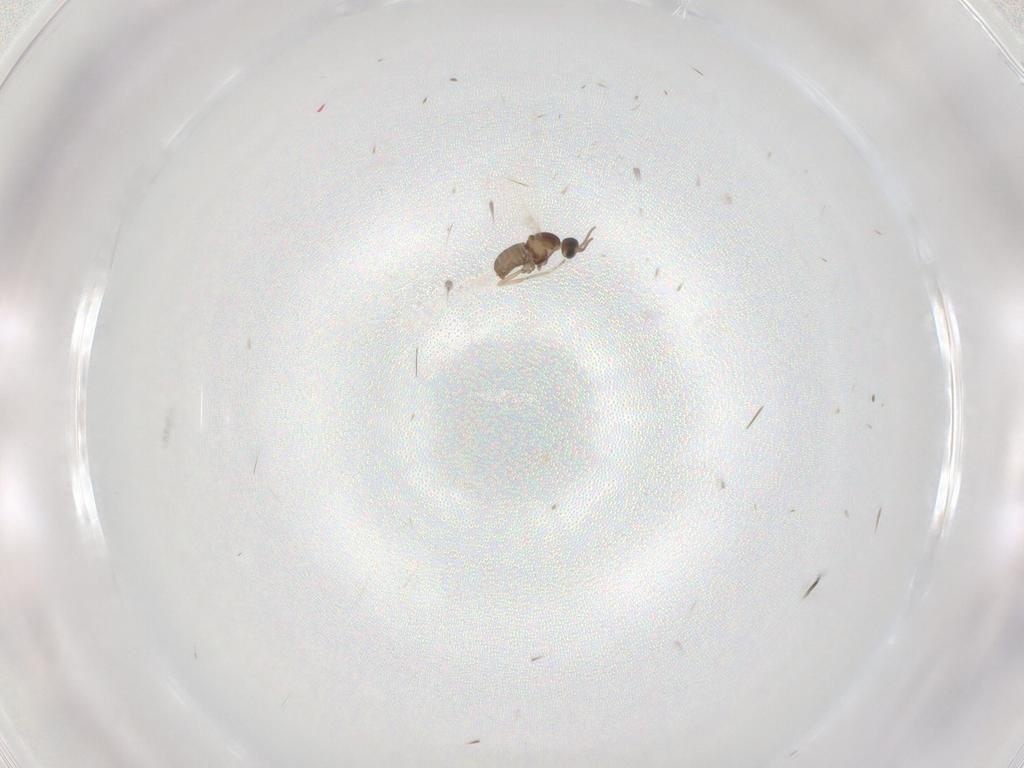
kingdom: Animalia
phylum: Arthropoda
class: Insecta
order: Diptera
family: Cecidomyiidae
